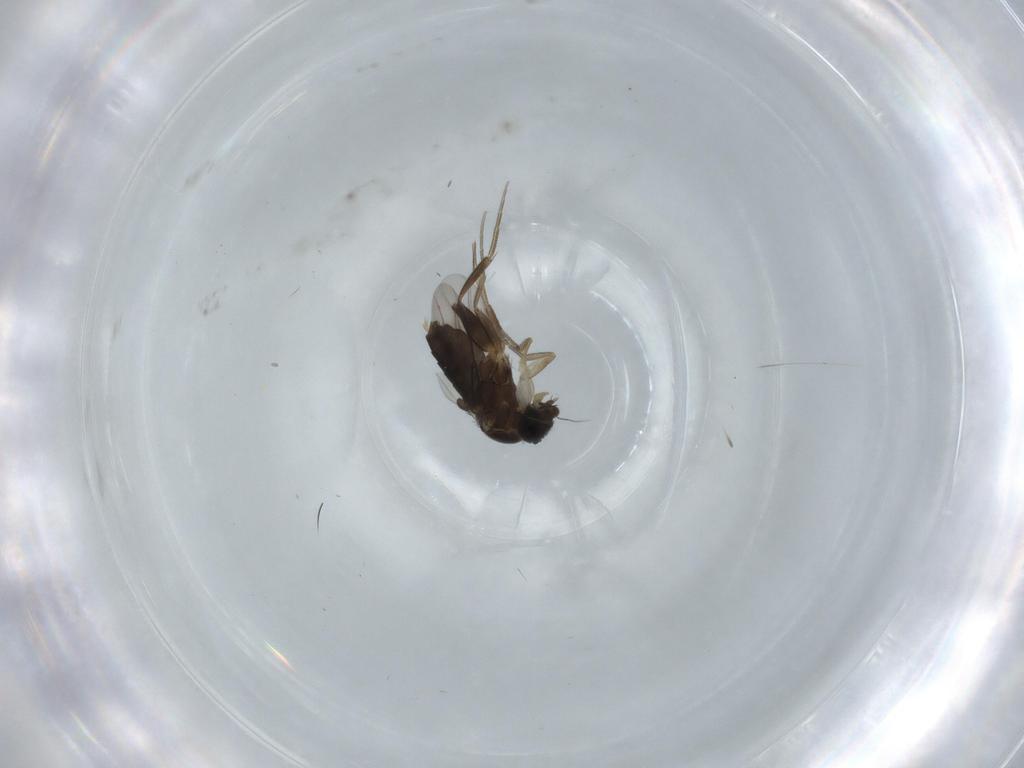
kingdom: Animalia
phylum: Arthropoda
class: Insecta
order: Diptera
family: Phoridae
